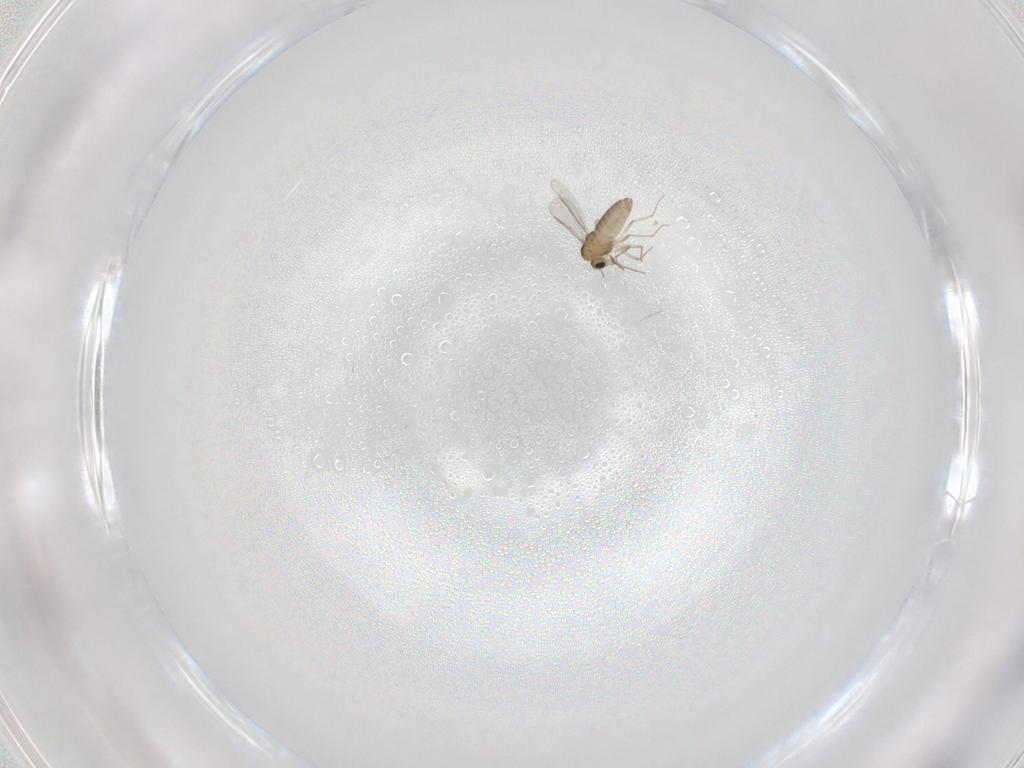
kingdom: Animalia
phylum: Arthropoda
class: Insecta
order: Diptera
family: Chironomidae
